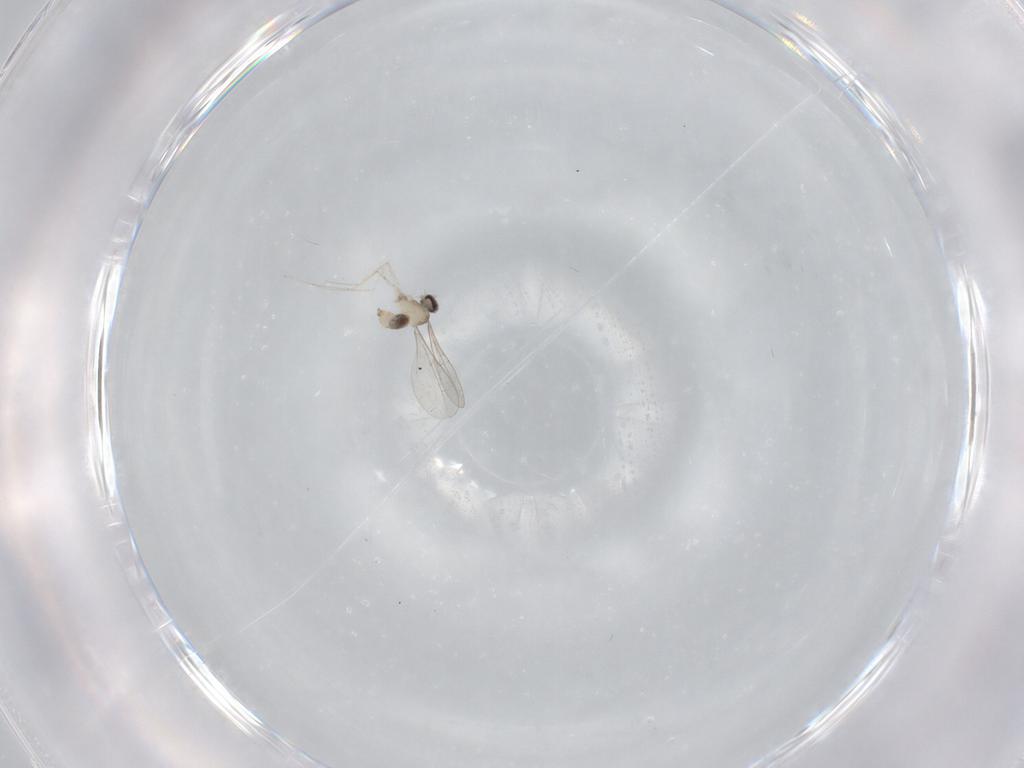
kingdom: Animalia
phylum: Arthropoda
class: Insecta
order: Diptera
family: Cecidomyiidae
